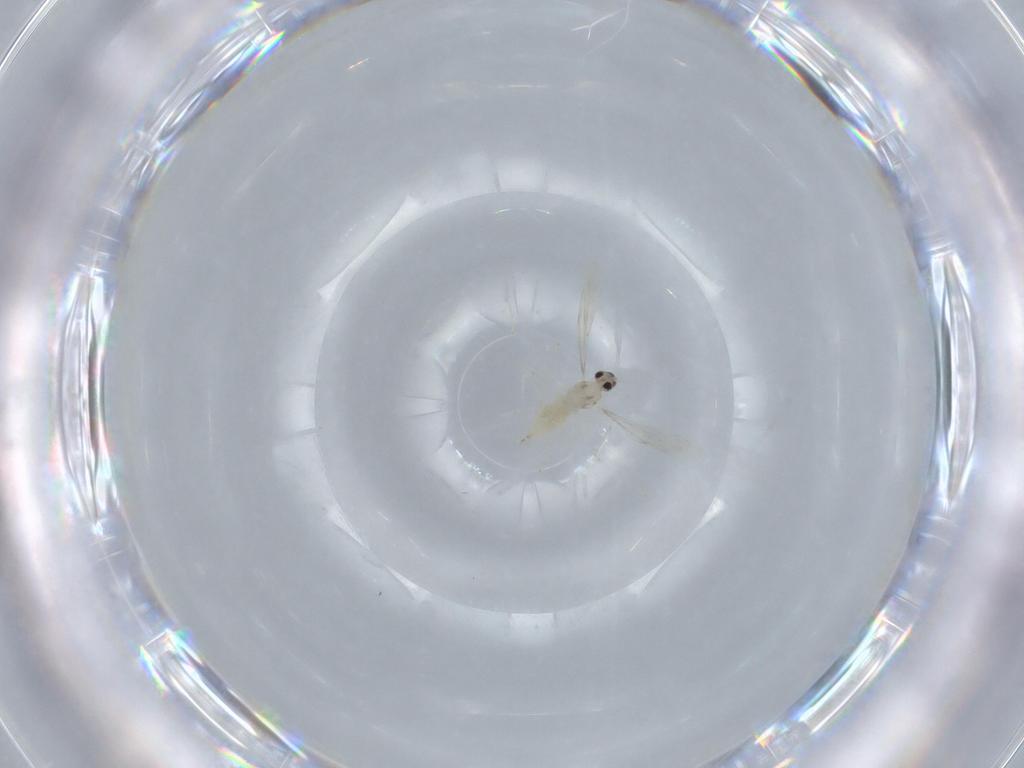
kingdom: Animalia
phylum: Arthropoda
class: Insecta
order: Diptera
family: Cecidomyiidae
